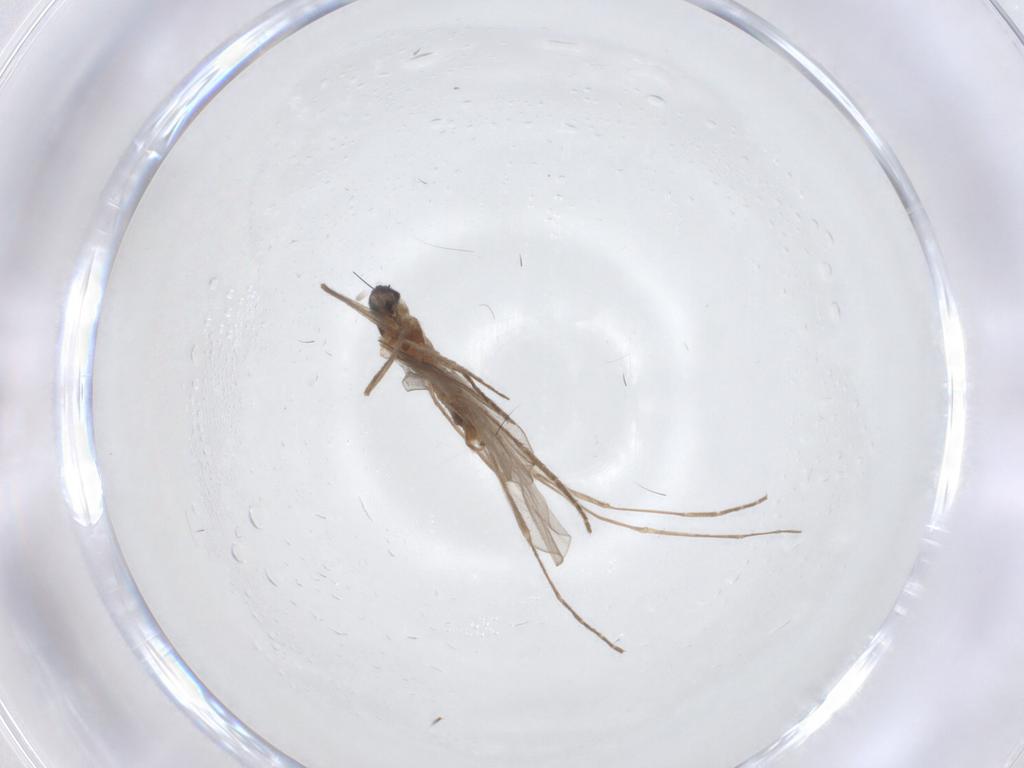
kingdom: Animalia
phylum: Arthropoda
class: Insecta
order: Diptera
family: Cecidomyiidae
